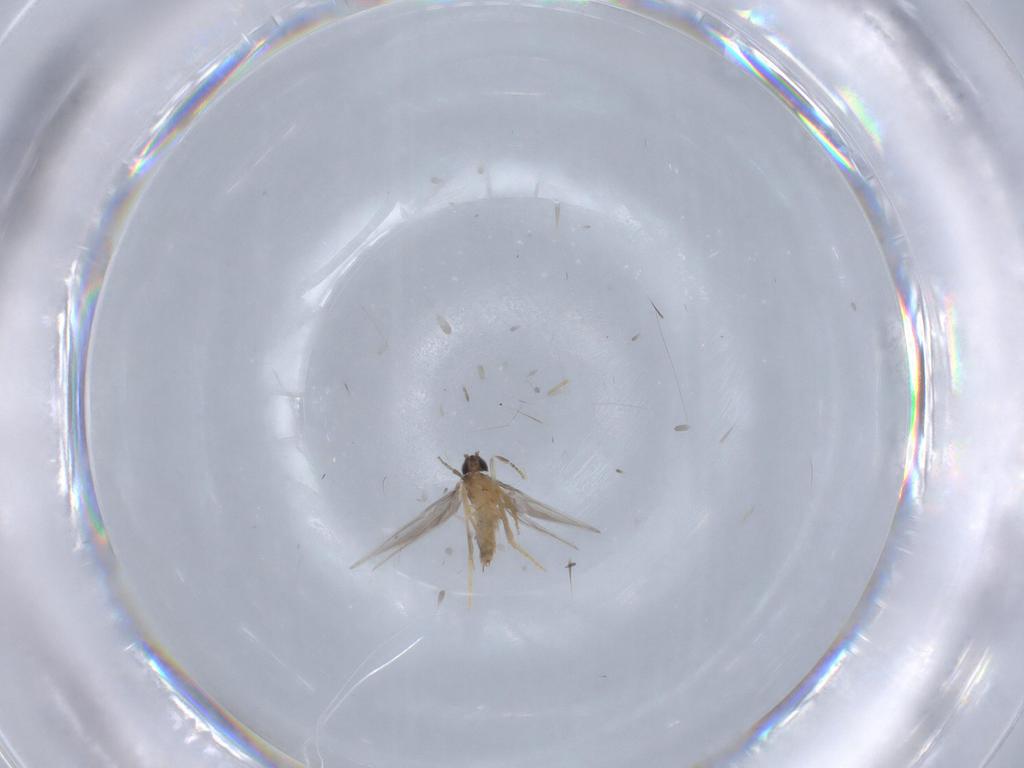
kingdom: Animalia
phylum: Arthropoda
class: Insecta
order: Trichoptera
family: Hydroptilidae
